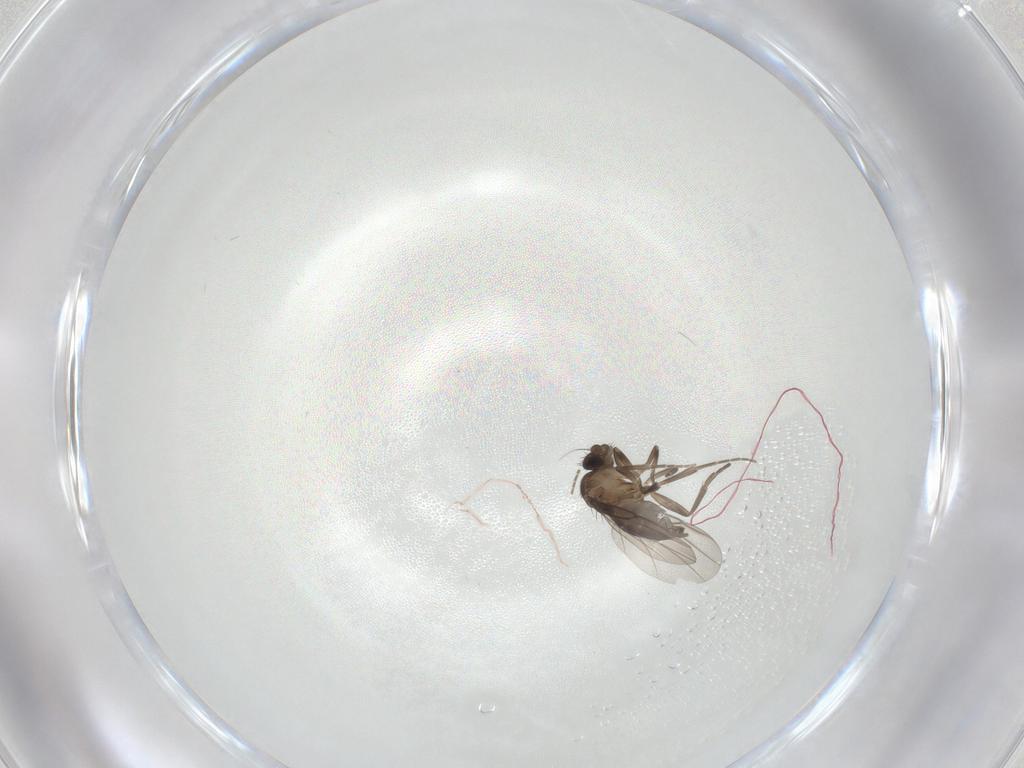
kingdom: Animalia
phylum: Arthropoda
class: Insecta
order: Diptera
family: Phoridae
